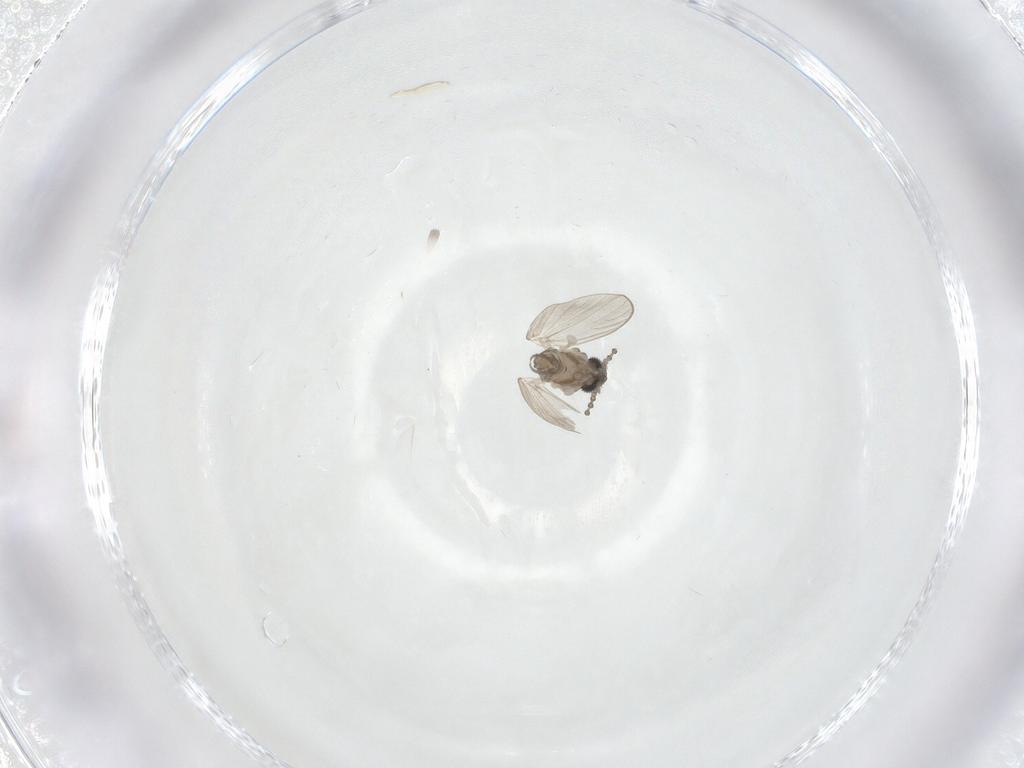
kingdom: Animalia
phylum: Arthropoda
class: Insecta
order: Diptera
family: Psychodidae
